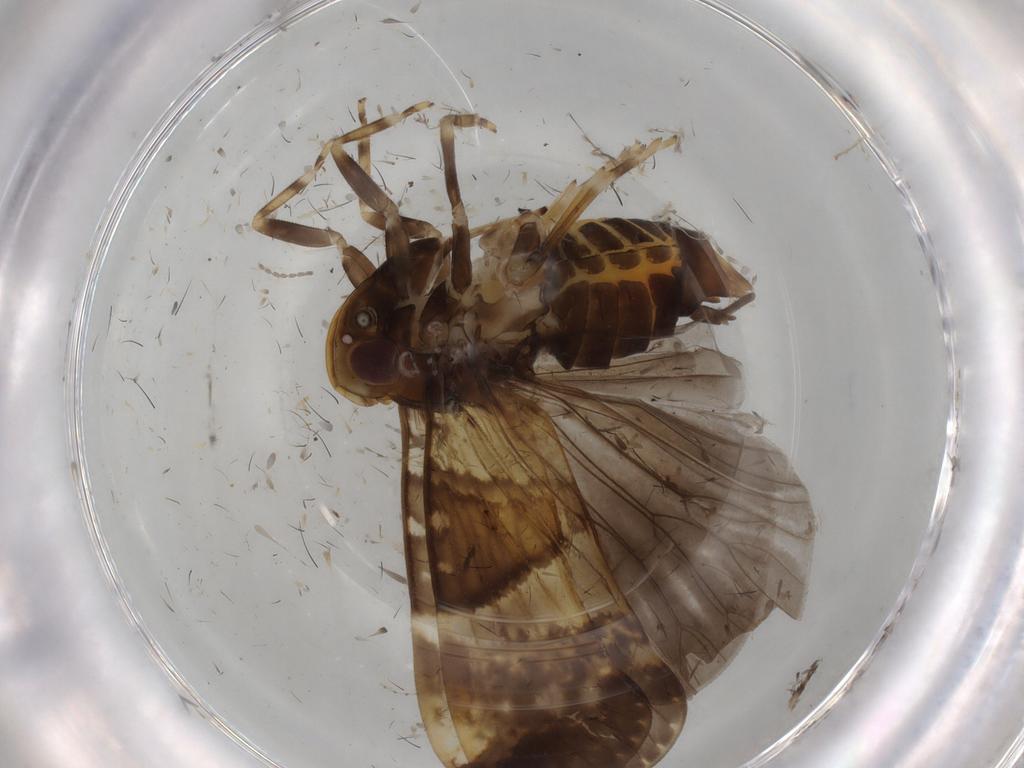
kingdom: Animalia
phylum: Arthropoda
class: Insecta
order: Hemiptera
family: Cixiidae
